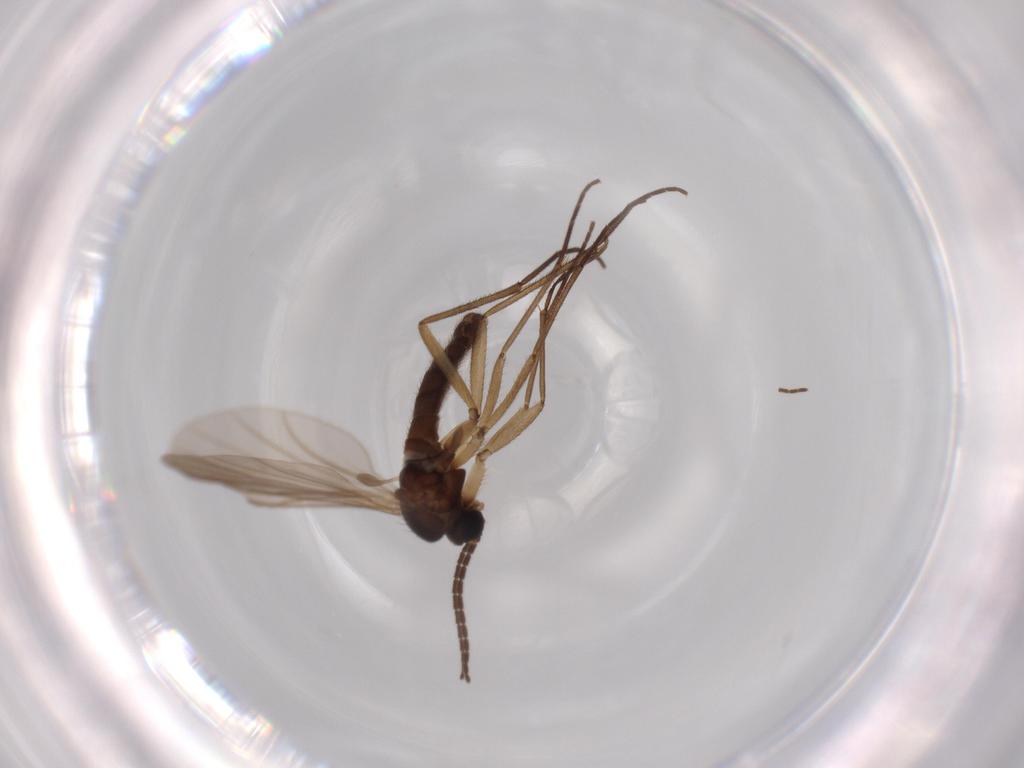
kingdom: Animalia
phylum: Arthropoda
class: Insecta
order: Diptera
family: Sciaridae
